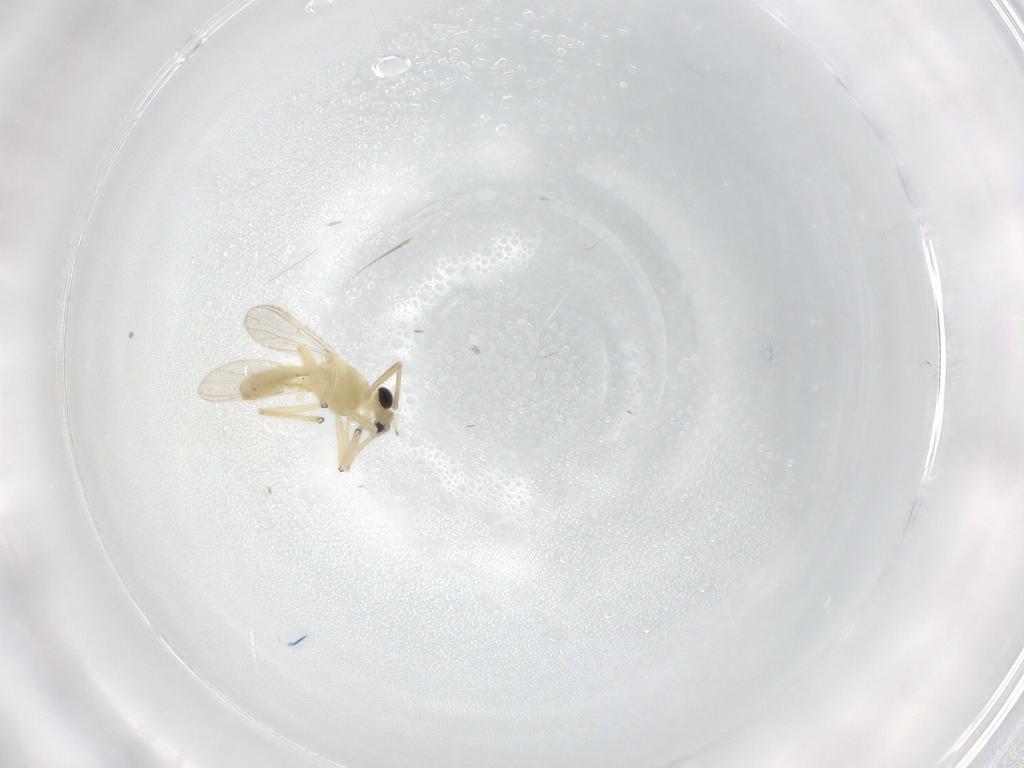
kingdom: Animalia
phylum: Arthropoda
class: Insecta
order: Diptera
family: Chironomidae
